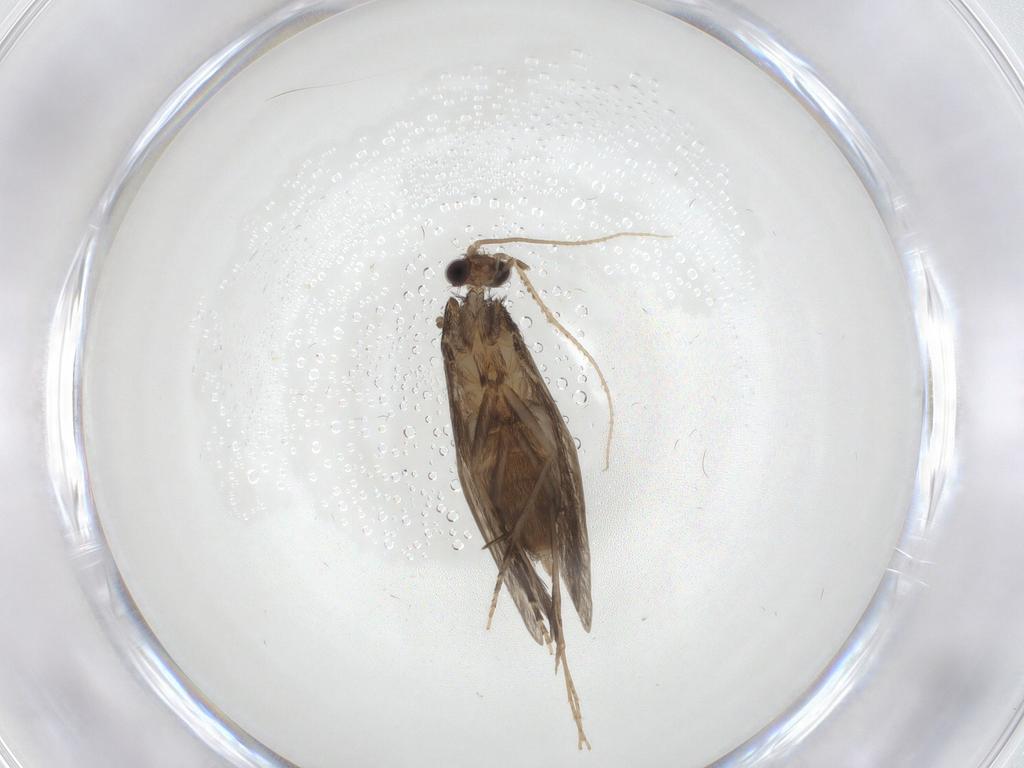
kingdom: Animalia
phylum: Arthropoda
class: Insecta
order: Trichoptera
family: Hydroptilidae
